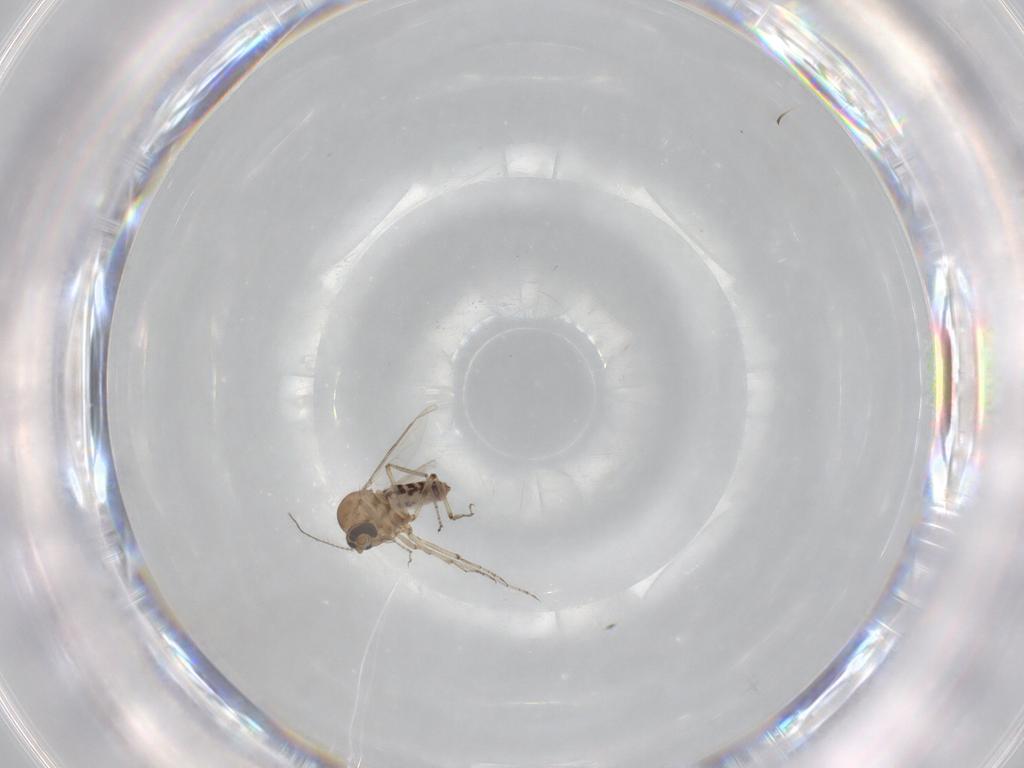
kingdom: Animalia
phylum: Arthropoda
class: Insecta
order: Diptera
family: Ceratopogonidae
